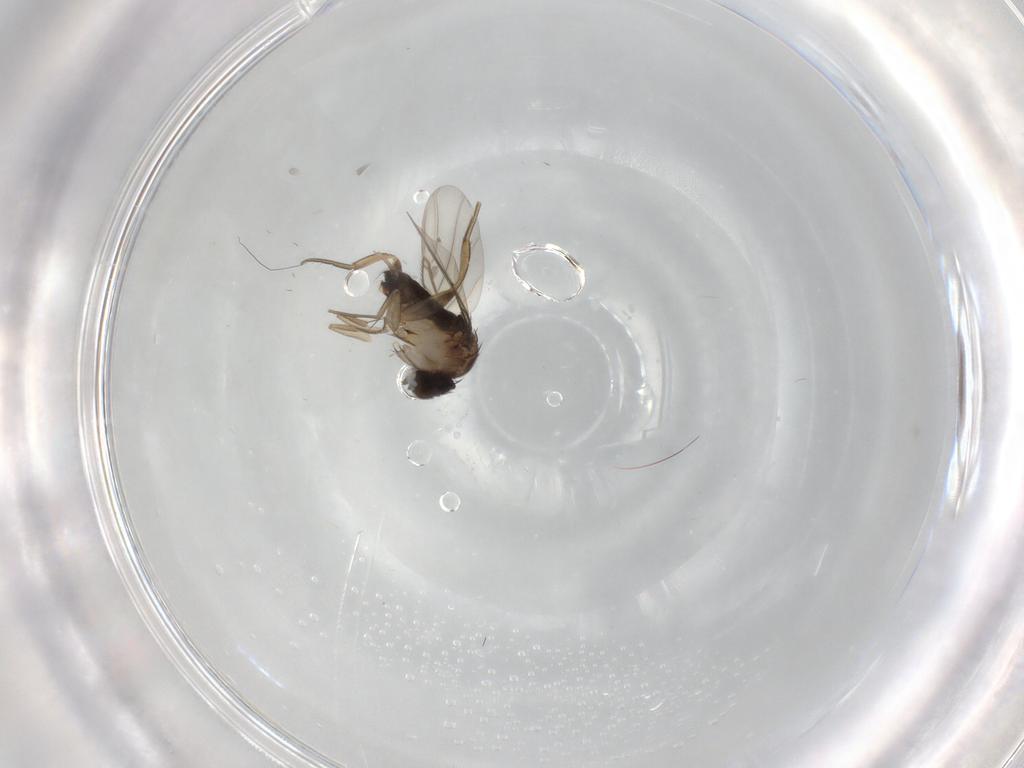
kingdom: Animalia
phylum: Arthropoda
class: Insecta
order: Diptera
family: Phoridae
